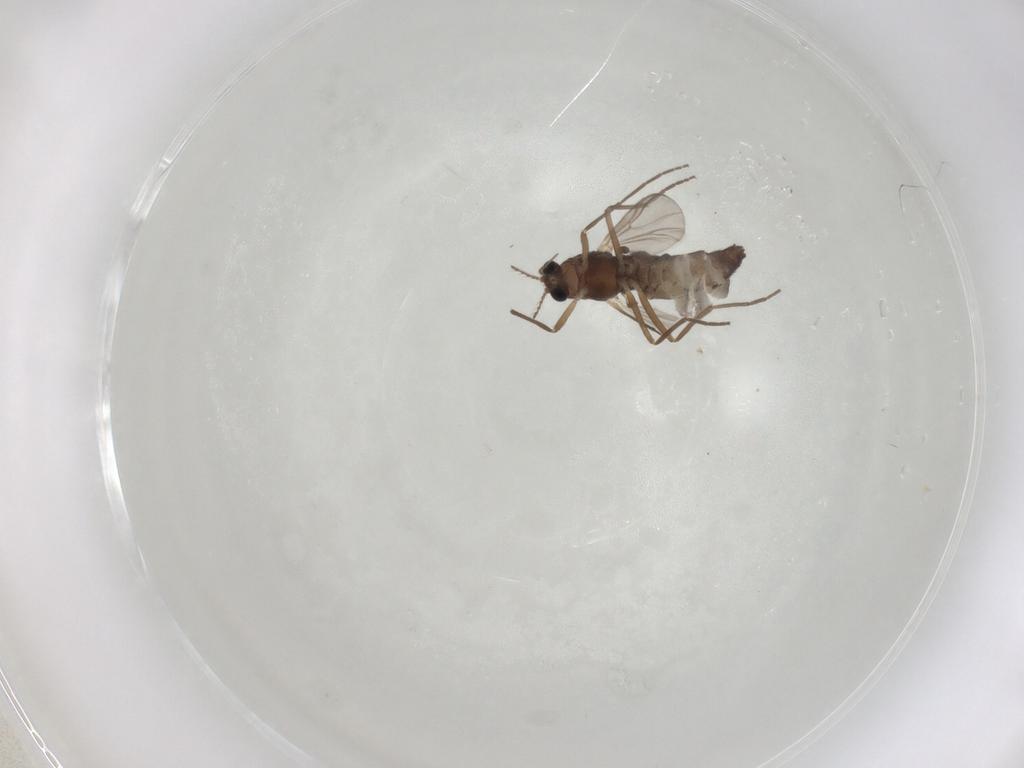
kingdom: Animalia
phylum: Arthropoda
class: Insecta
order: Diptera
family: Chironomidae
